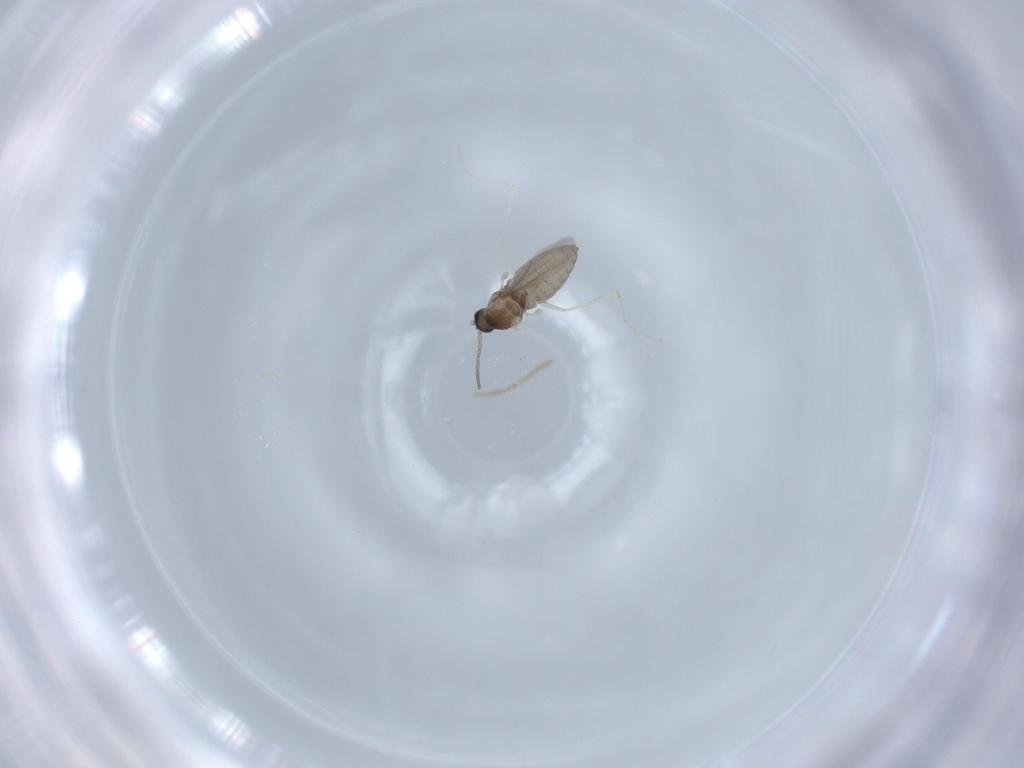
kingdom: Animalia
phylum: Arthropoda
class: Insecta
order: Diptera
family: Cecidomyiidae
